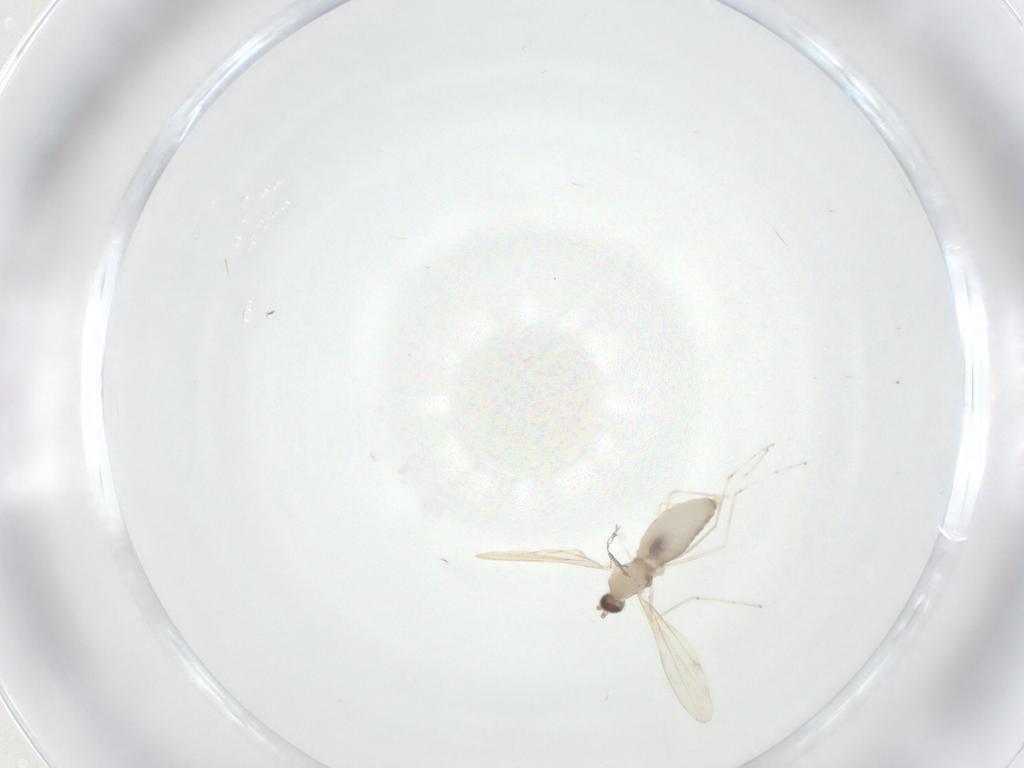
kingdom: Animalia
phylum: Arthropoda
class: Insecta
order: Diptera
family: Cecidomyiidae
